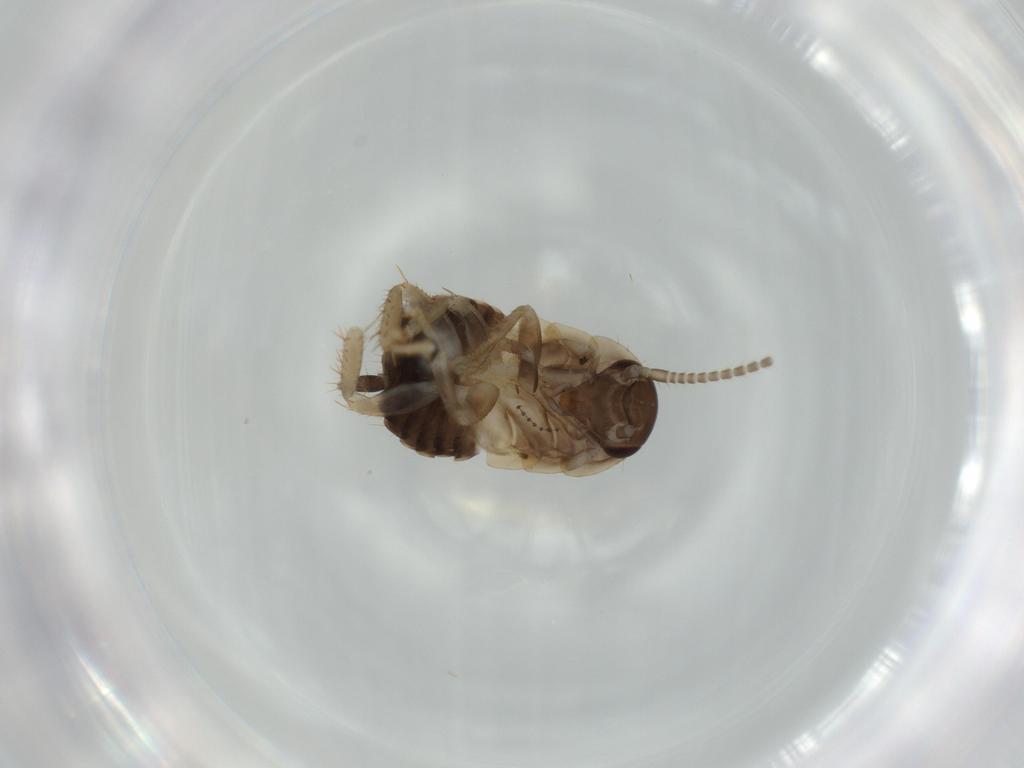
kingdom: Animalia
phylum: Arthropoda
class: Insecta
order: Blattodea
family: Ectobiidae
